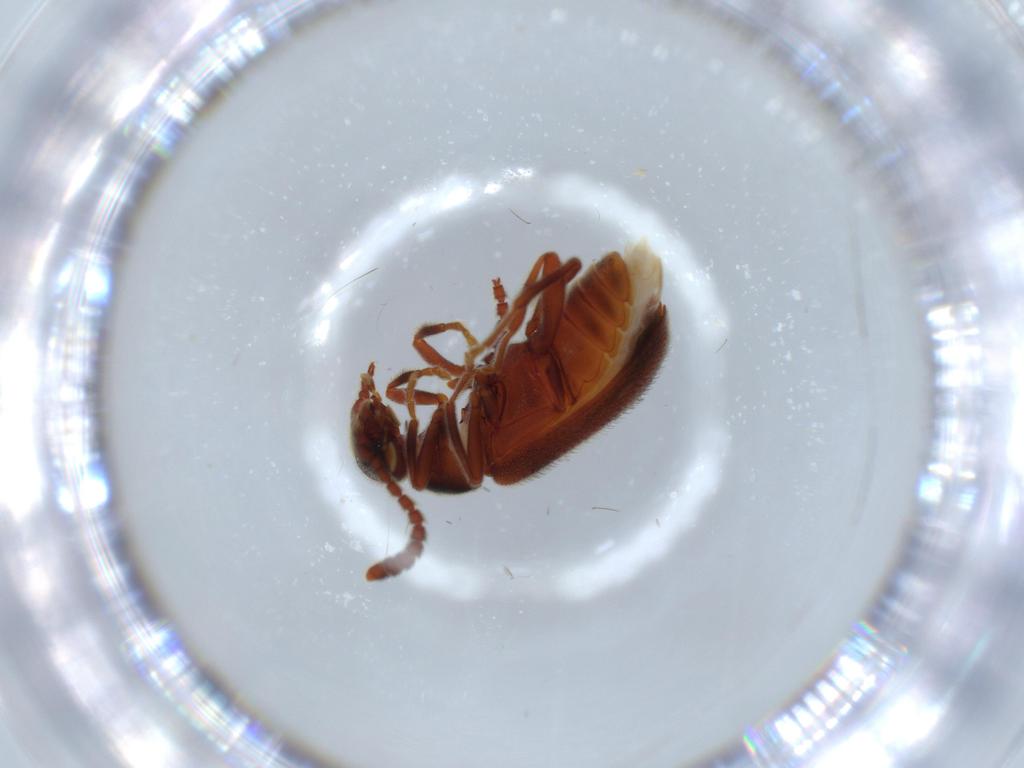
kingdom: Animalia
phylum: Arthropoda
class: Insecta
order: Coleoptera
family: Aderidae
